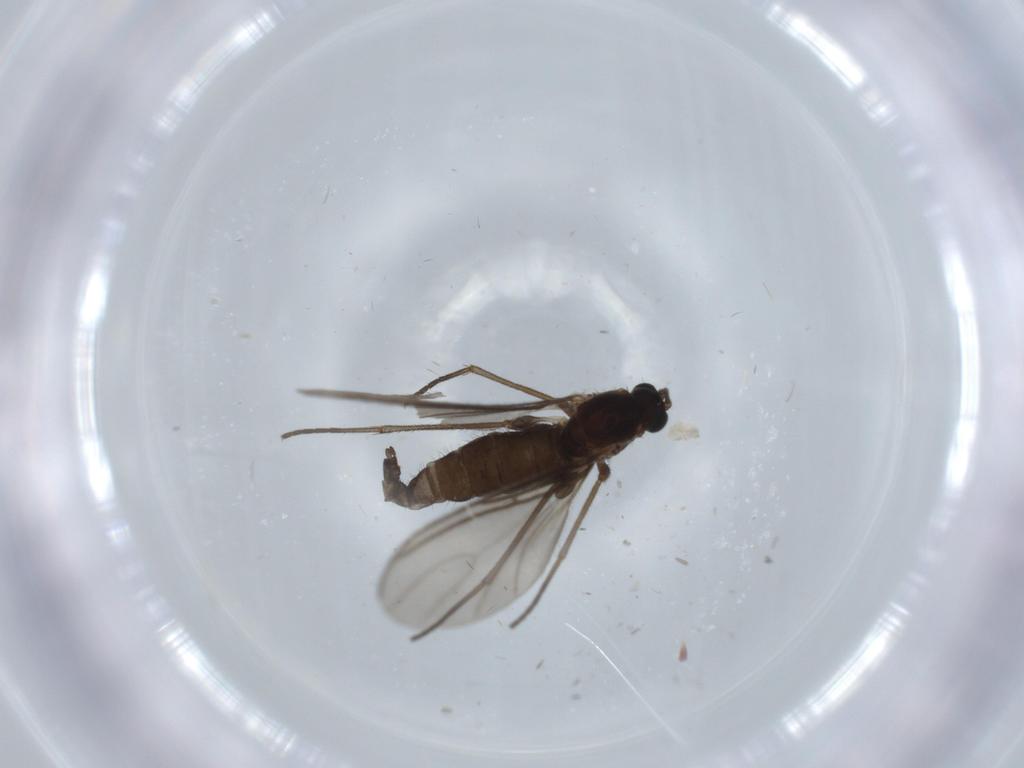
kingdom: Animalia
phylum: Arthropoda
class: Insecta
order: Diptera
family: Sciaridae
